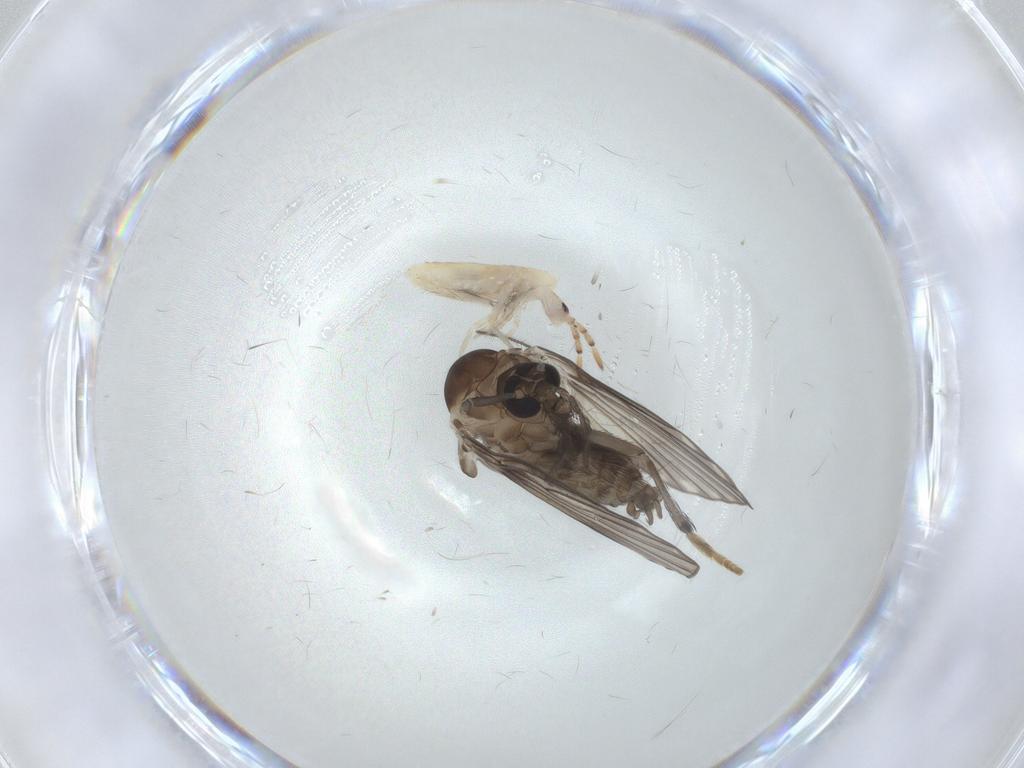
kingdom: Animalia
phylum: Arthropoda
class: Insecta
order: Diptera
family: Psychodidae
